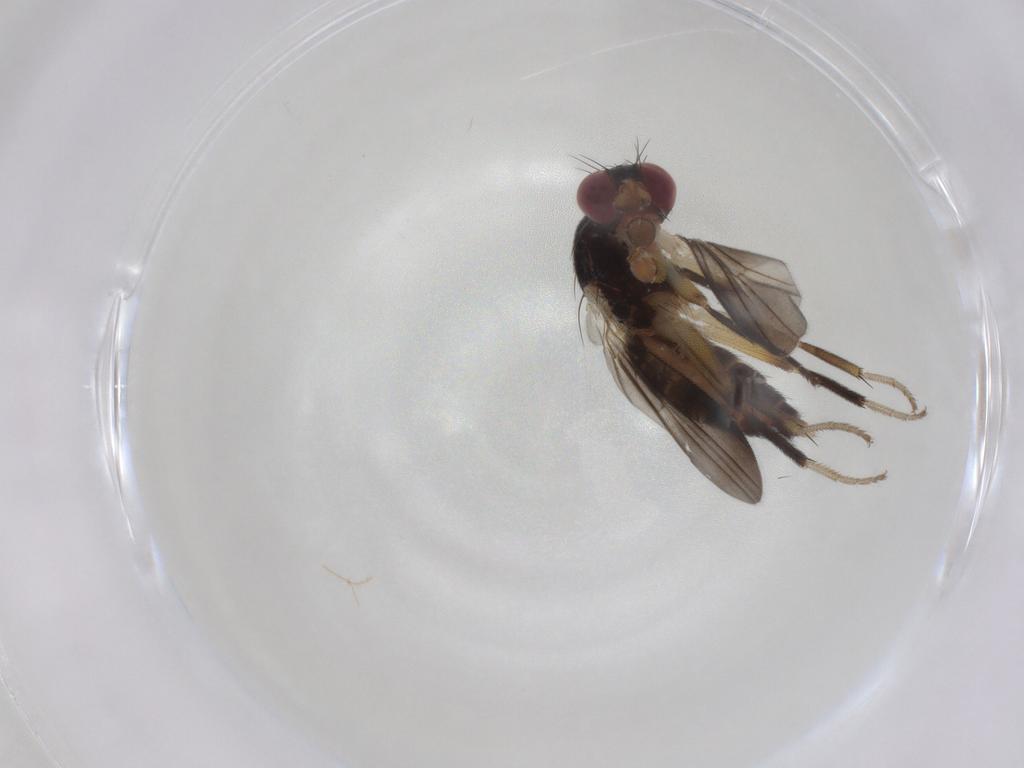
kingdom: Animalia
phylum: Arthropoda
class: Insecta
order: Diptera
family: Clusiidae
